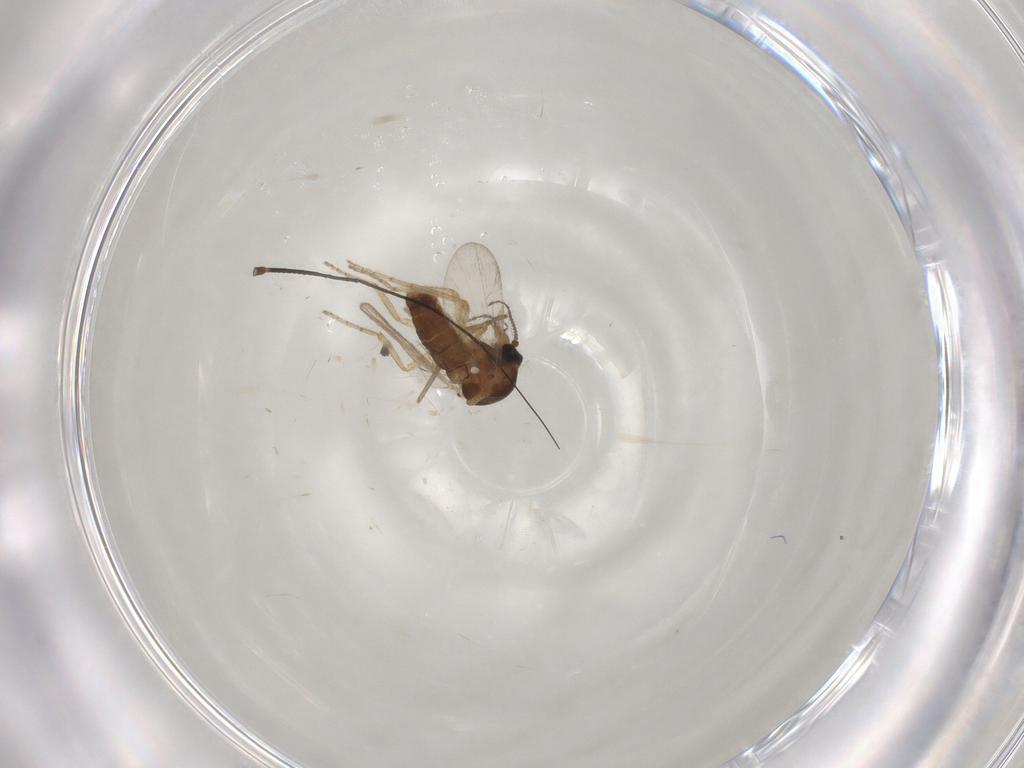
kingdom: Animalia
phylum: Arthropoda
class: Insecta
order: Diptera
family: Ceratopogonidae
